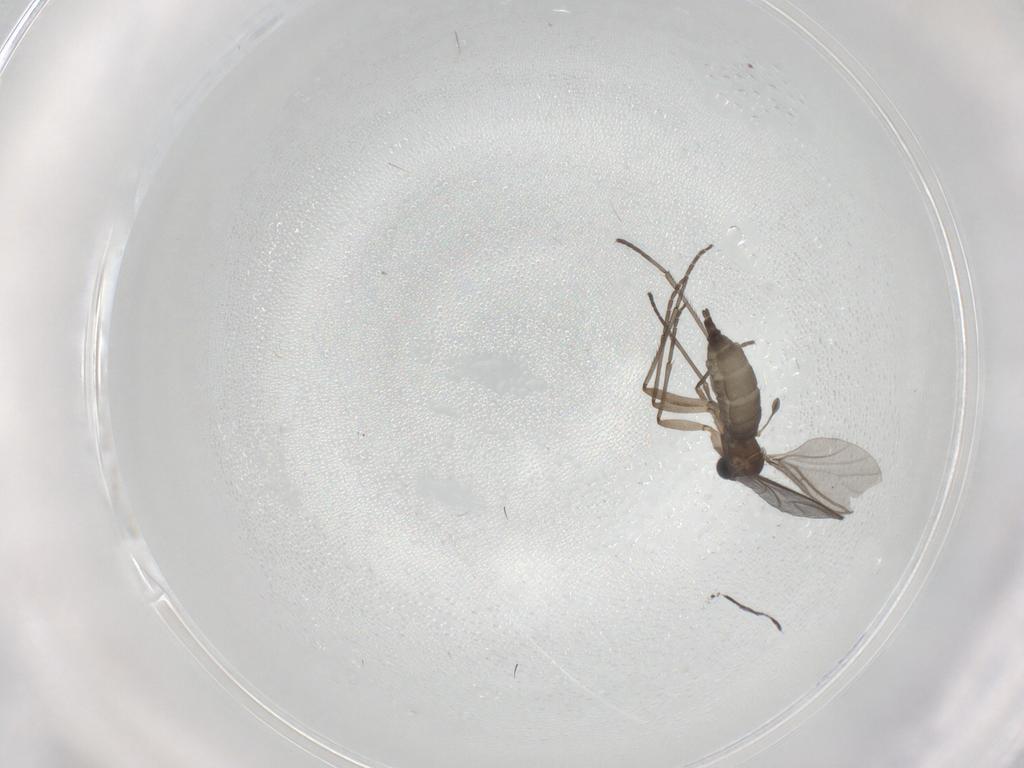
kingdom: Animalia
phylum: Arthropoda
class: Insecta
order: Diptera
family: Sciaridae
